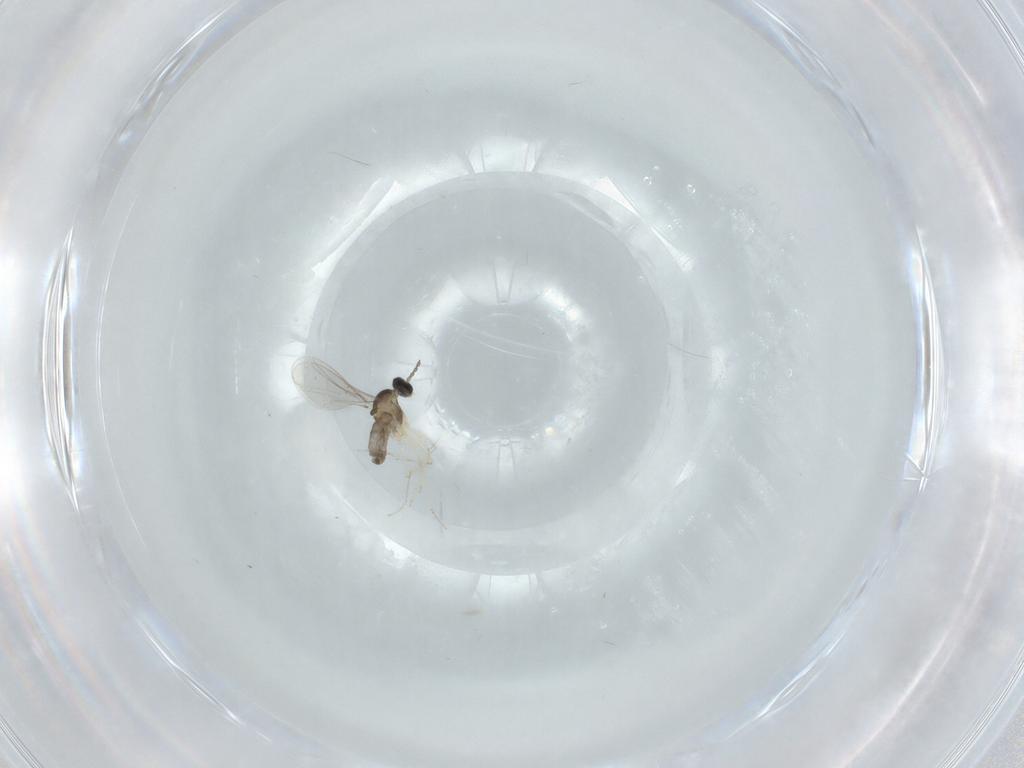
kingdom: Animalia
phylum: Arthropoda
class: Insecta
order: Diptera
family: Cecidomyiidae
